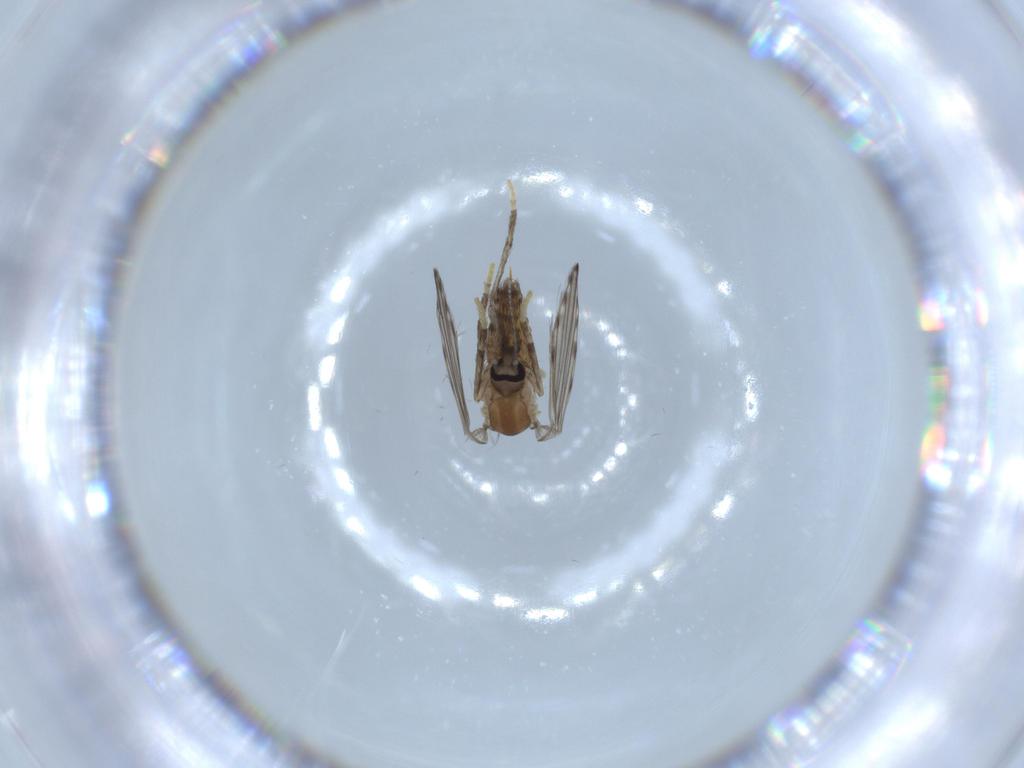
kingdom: Animalia
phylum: Arthropoda
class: Insecta
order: Diptera
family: Psychodidae
